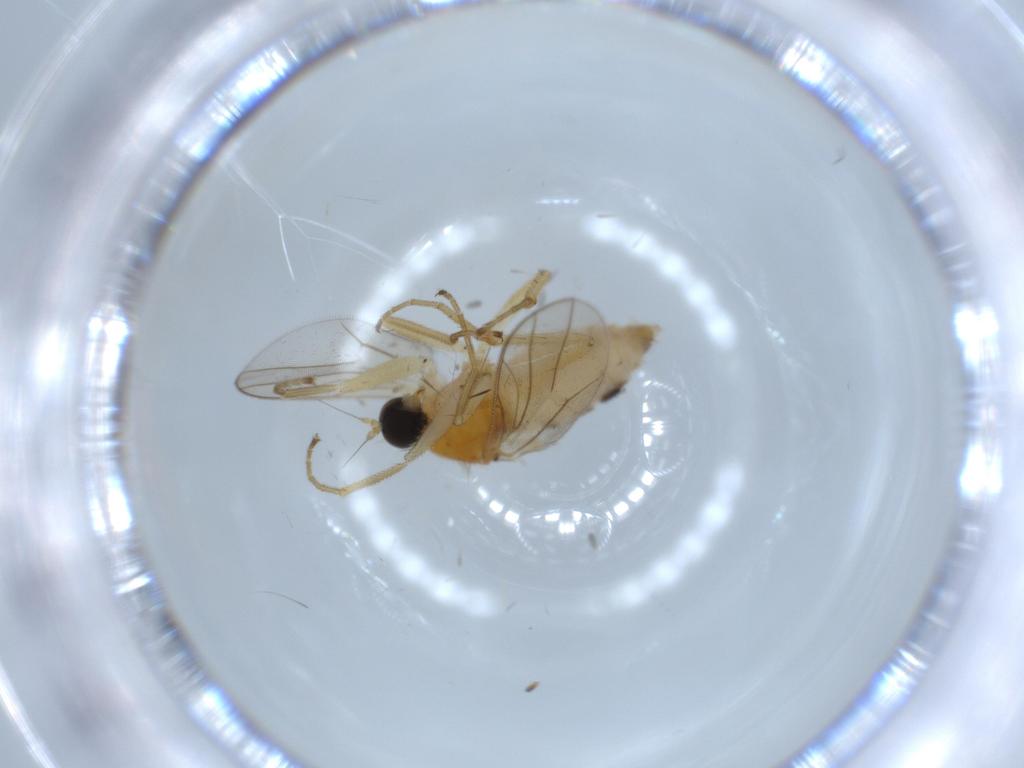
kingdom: Animalia
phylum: Arthropoda
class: Insecta
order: Diptera
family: Hybotidae
